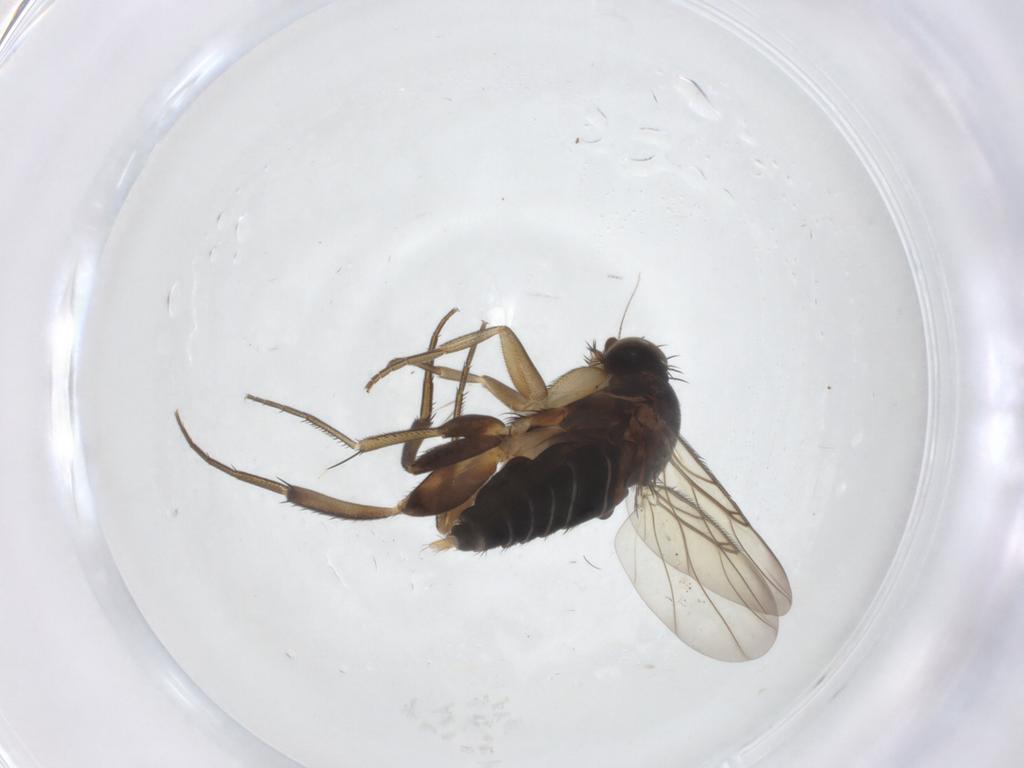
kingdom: Animalia
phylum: Arthropoda
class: Insecta
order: Diptera
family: Phoridae
